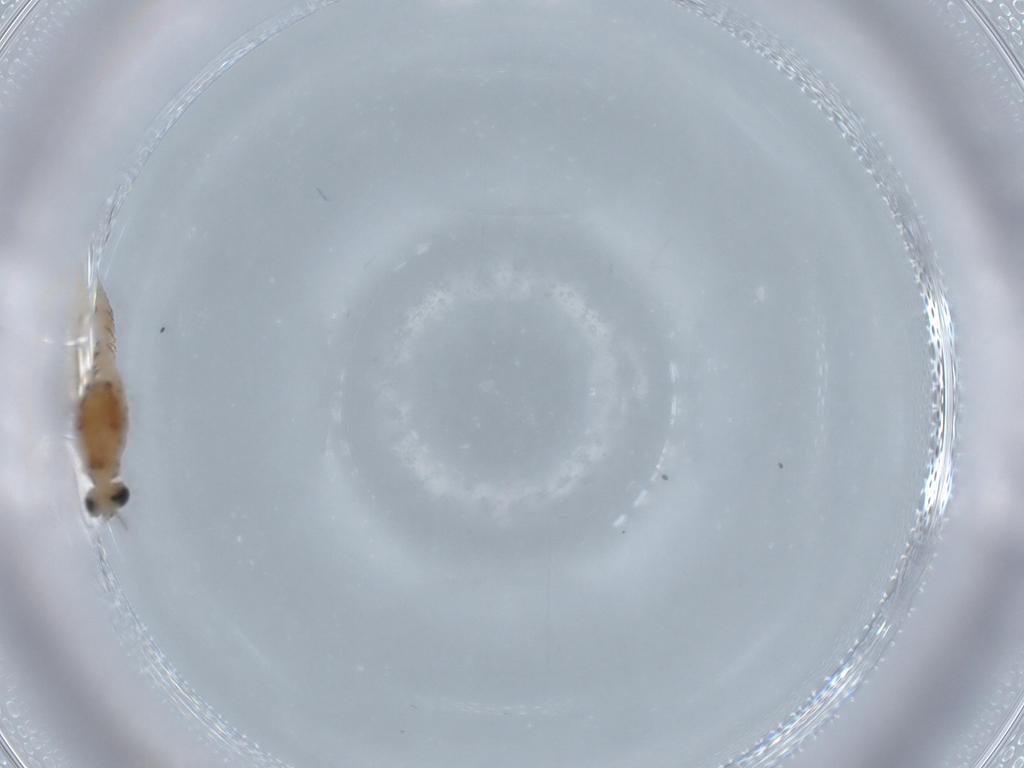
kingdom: Animalia
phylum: Arthropoda
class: Insecta
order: Diptera
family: Corethrellidae
